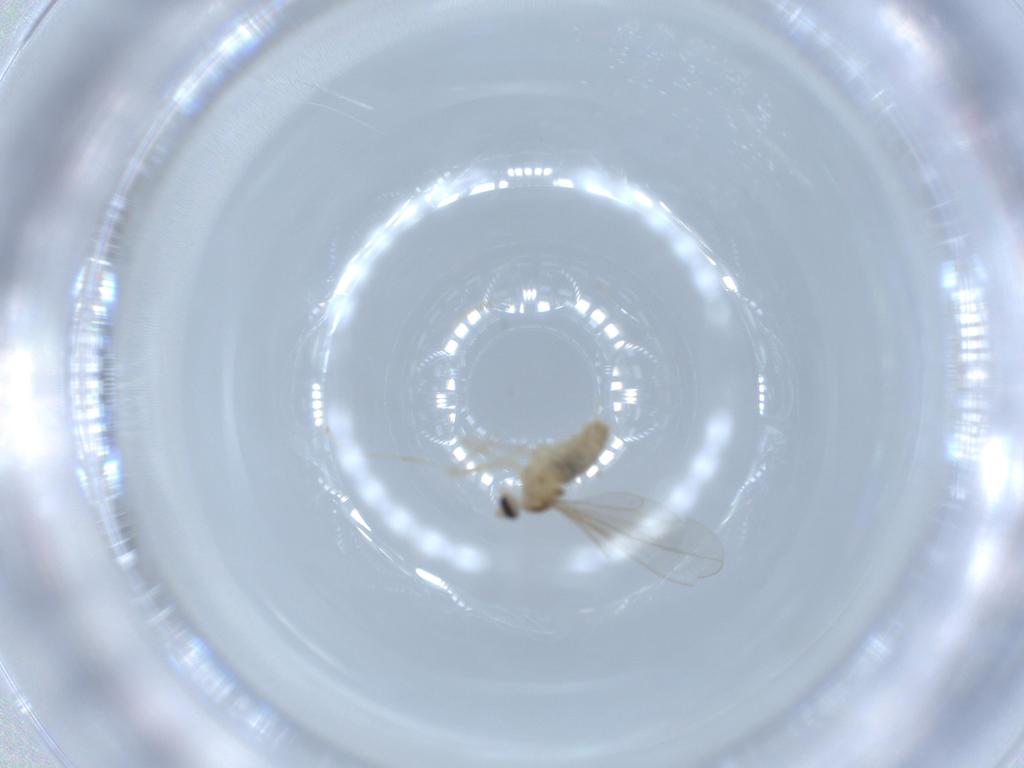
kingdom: Animalia
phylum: Arthropoda
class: Insecta
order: Diptera
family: Cecidomyiidae
